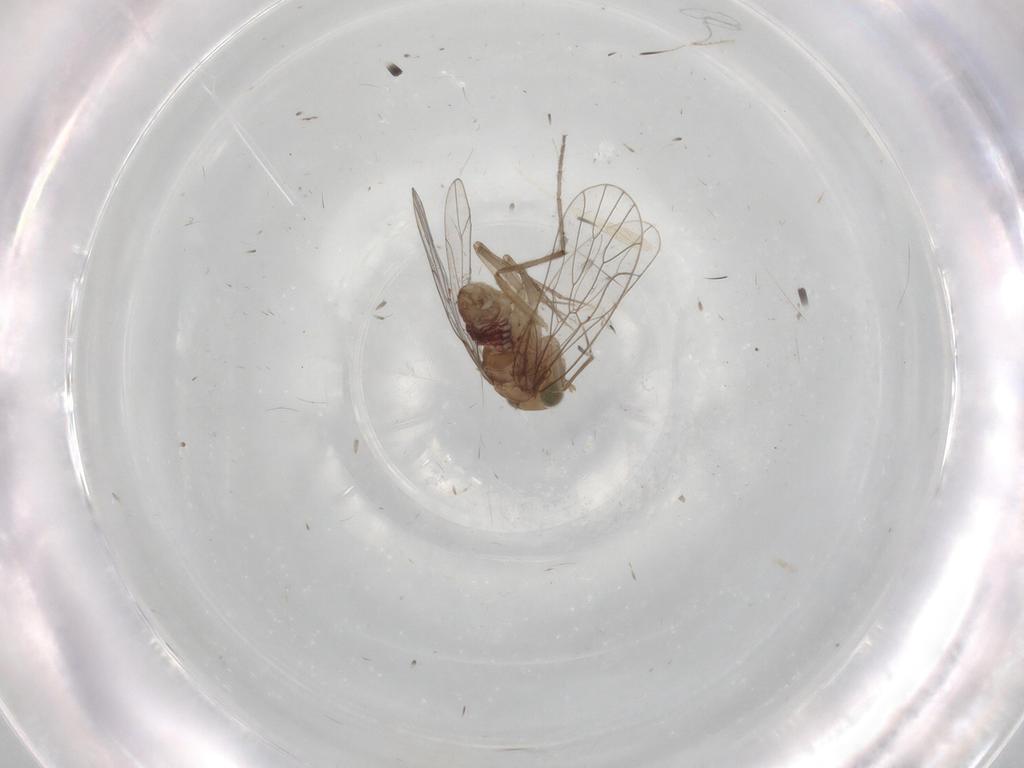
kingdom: Animalia
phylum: Arthropoda
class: Insecta
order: Psocodea
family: Amphientomidae
